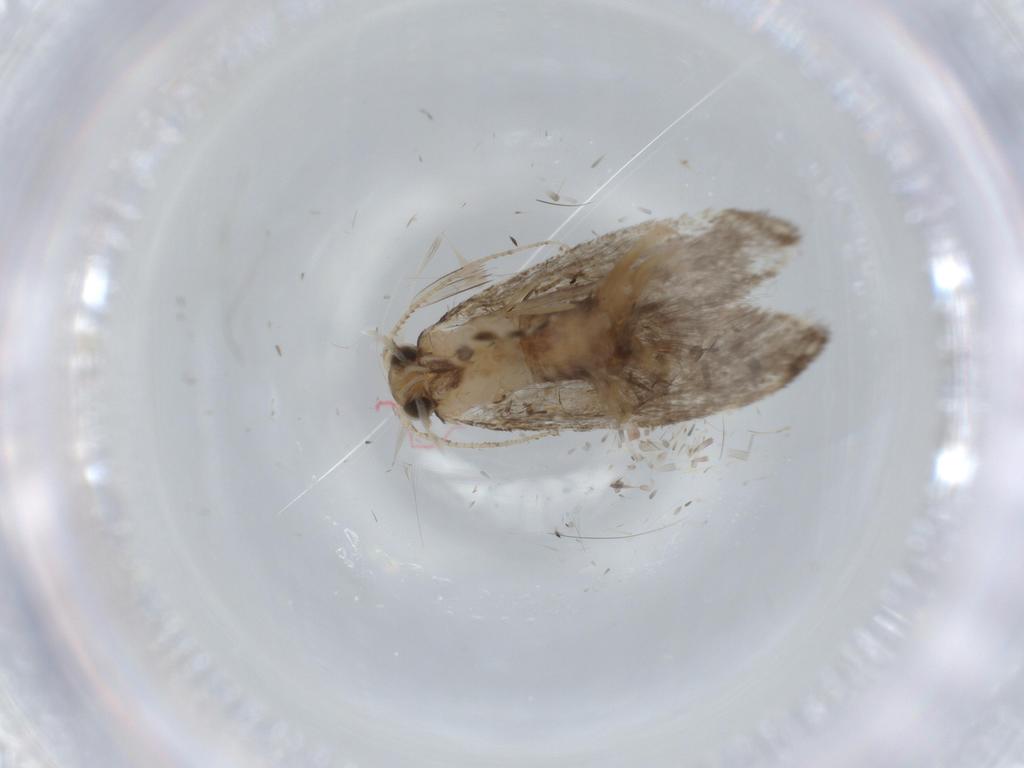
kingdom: Animalia
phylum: Arthropoda
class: Insecta
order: Lepidoptera
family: Tineidae
